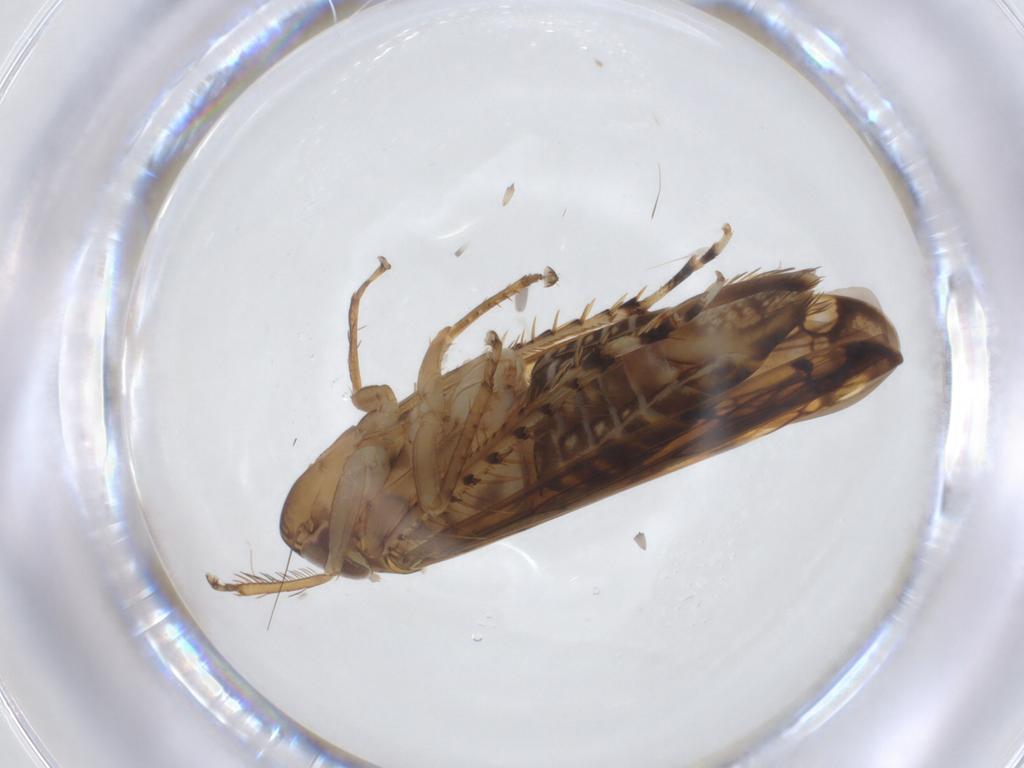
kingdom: Animalia
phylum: Arthropoda
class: Insecta
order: Hemiptera
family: Cicadellidae
